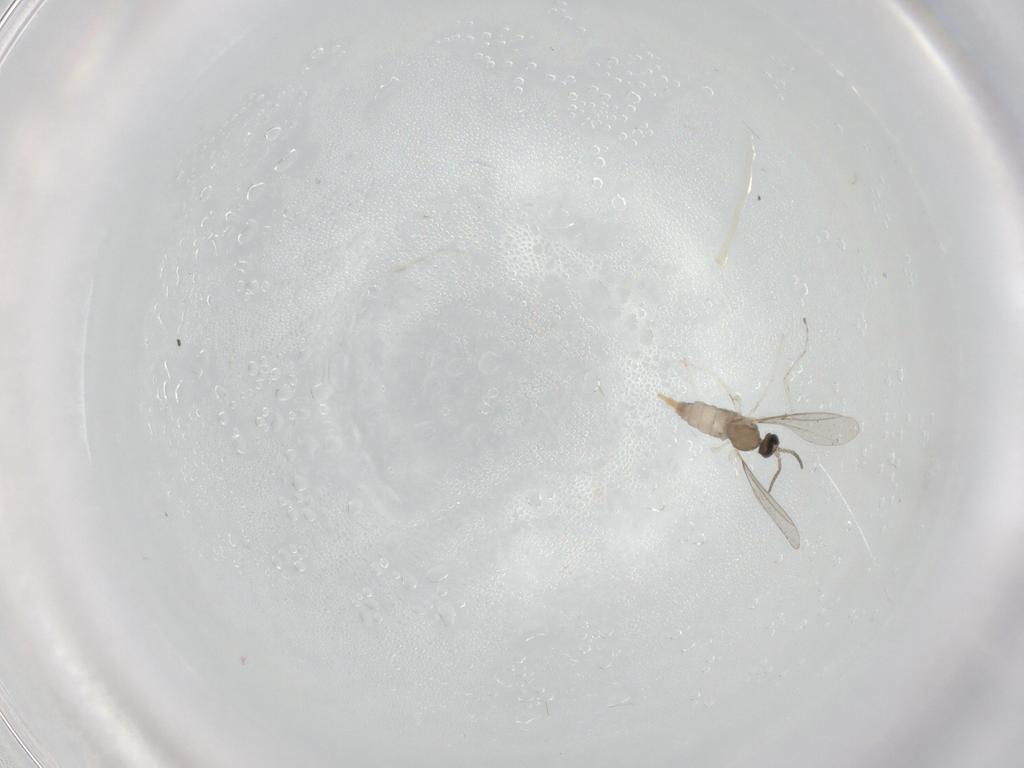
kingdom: Animalia
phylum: Arthropoda
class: Insecta
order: Diptera
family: Cecidomyiidae
